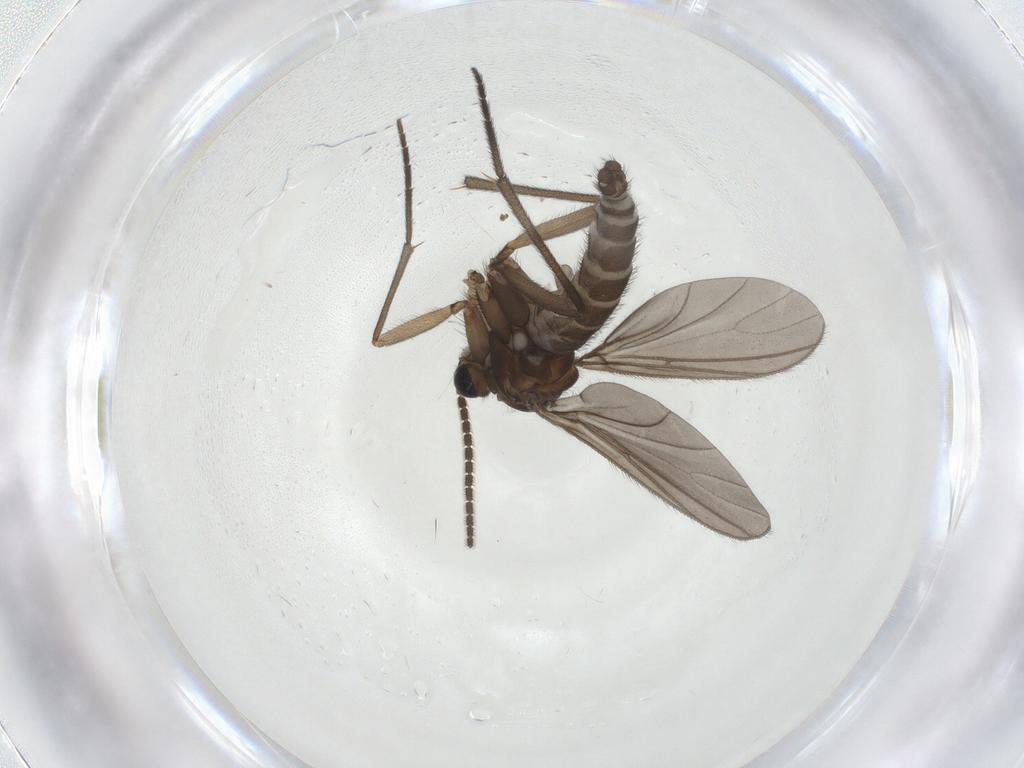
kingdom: Animalia
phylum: Arthropoda
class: Insecta
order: Diptera
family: Sciaridae
